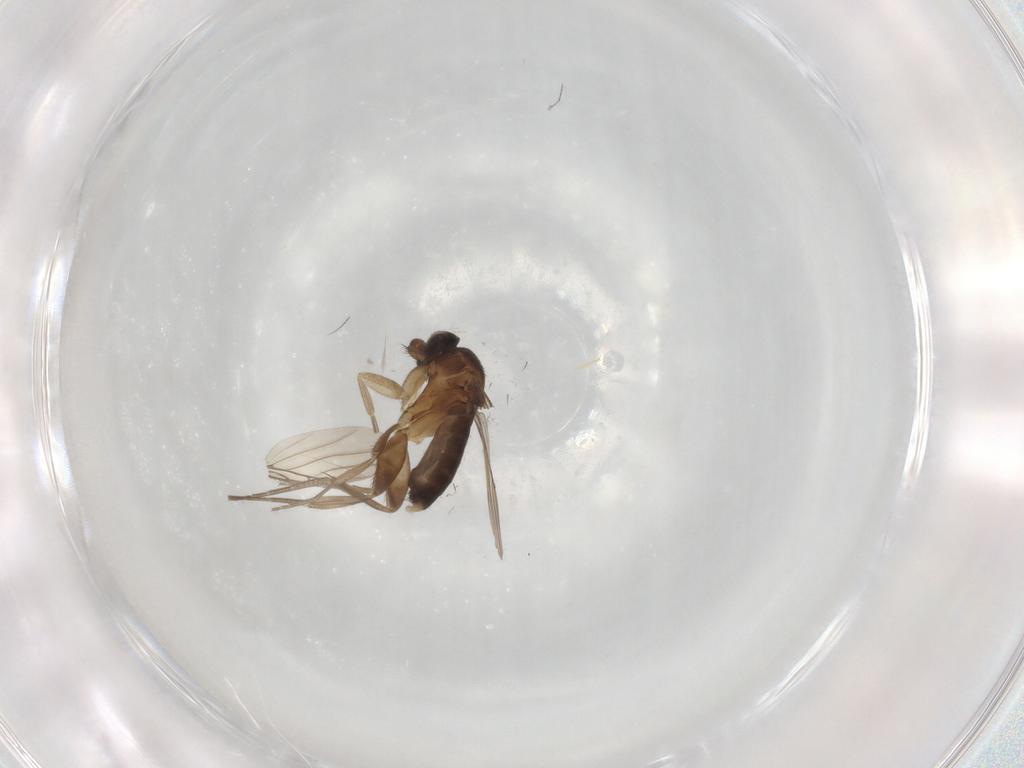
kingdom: Animalia
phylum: Arthropoda
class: Insecta
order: Diptera
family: Phoridae
